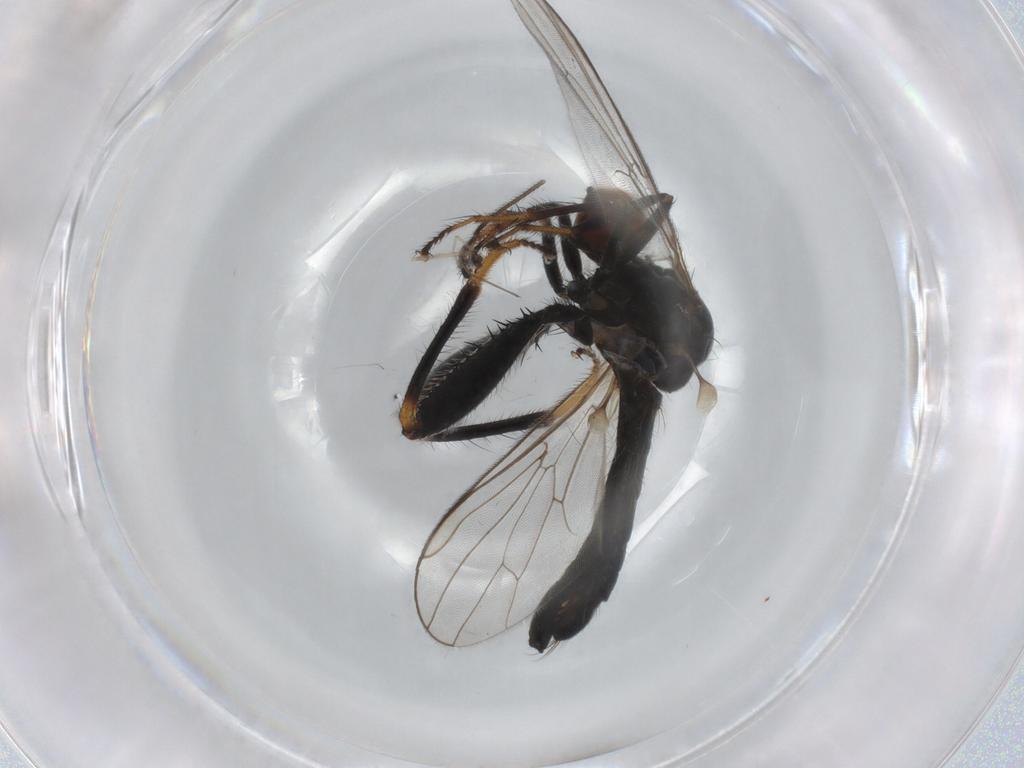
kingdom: Animalia
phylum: Arthropoda
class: Insecta
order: Diptera
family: Hybotidae
